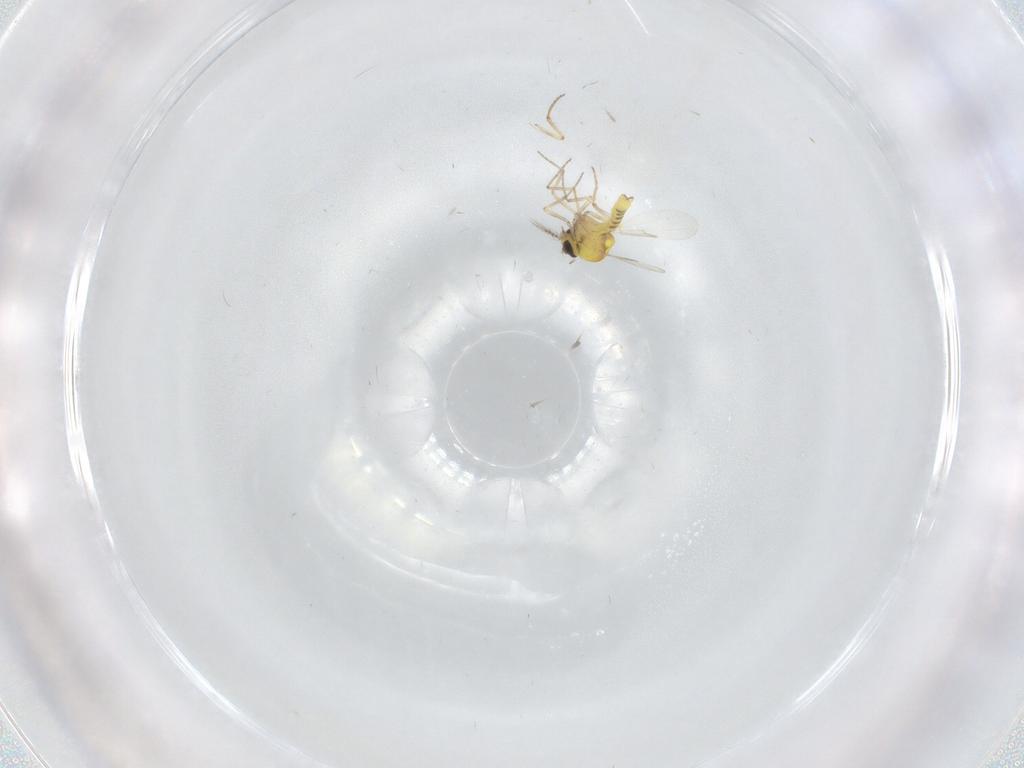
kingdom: Animalia
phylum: Arthropoda
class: Insecta
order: Diptera
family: Ceratopogonidae
